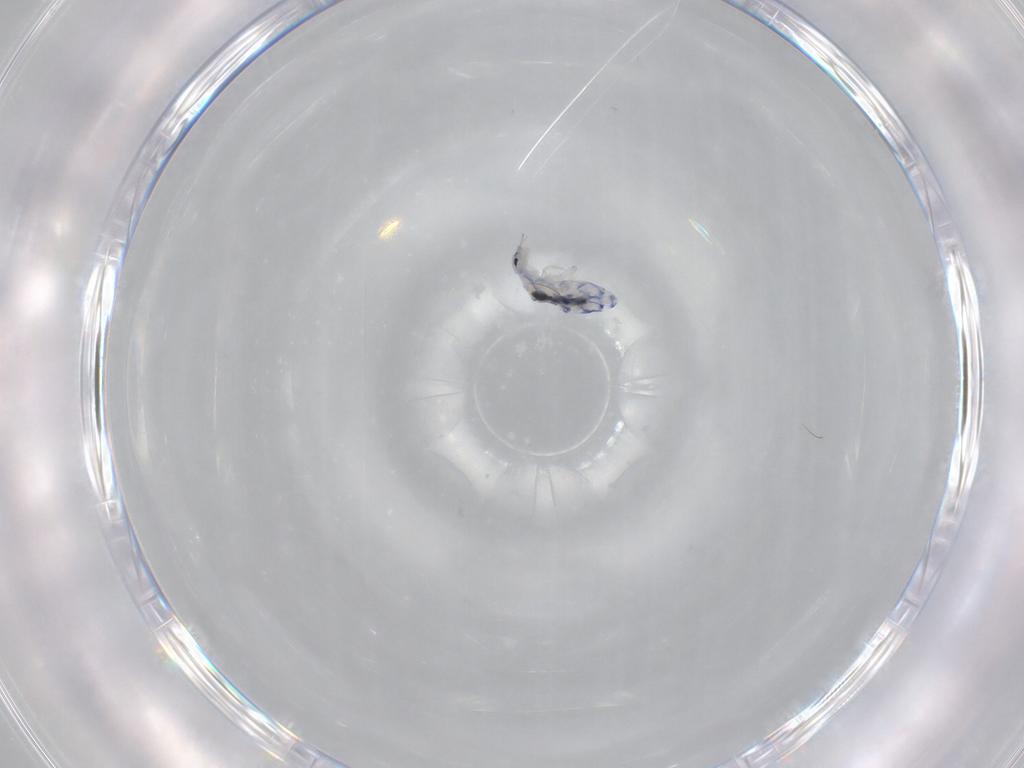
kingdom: Animalia
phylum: Arthropoda
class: Collembola
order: Entomobryomorpha
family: Entomobryidae
